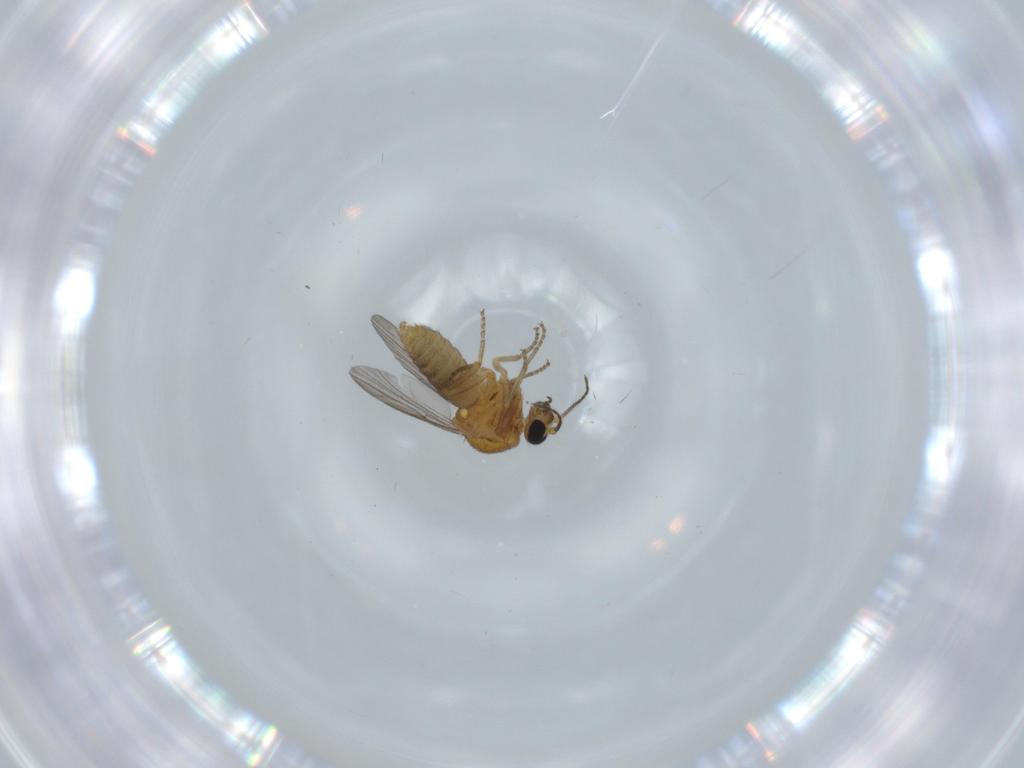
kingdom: Animalia
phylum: Arthropoda
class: Insecta
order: Diptera
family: Ceratopogonidae
